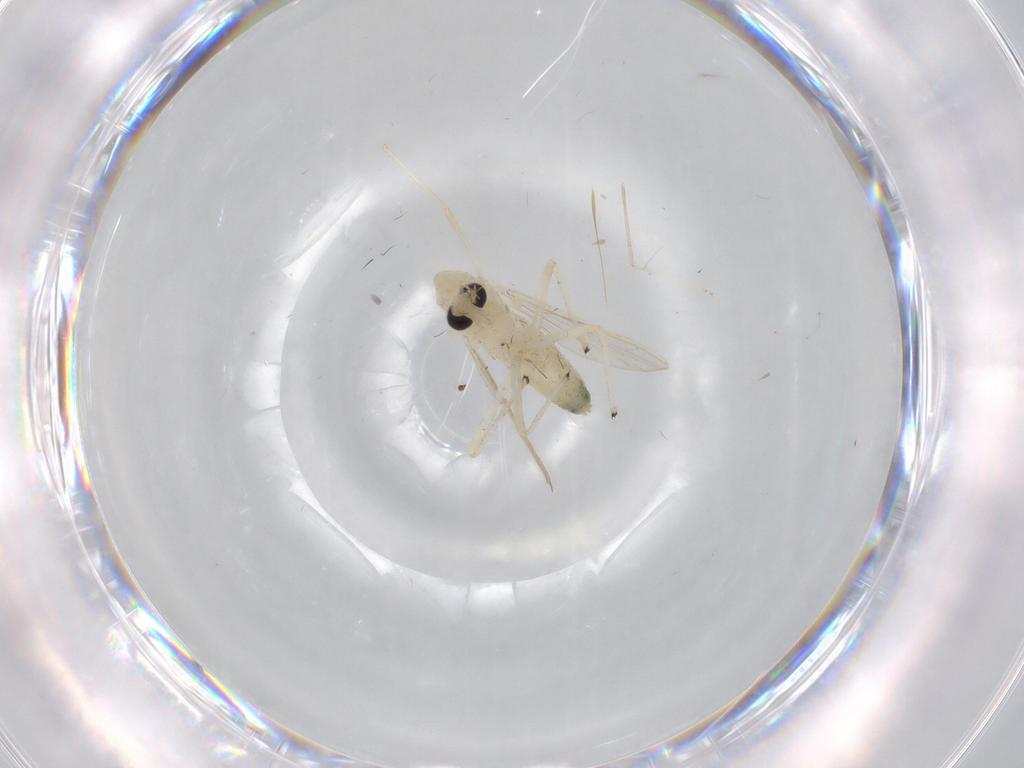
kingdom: Animalia
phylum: Arthropoda
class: Insecta
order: Diptera
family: Chironomidae
